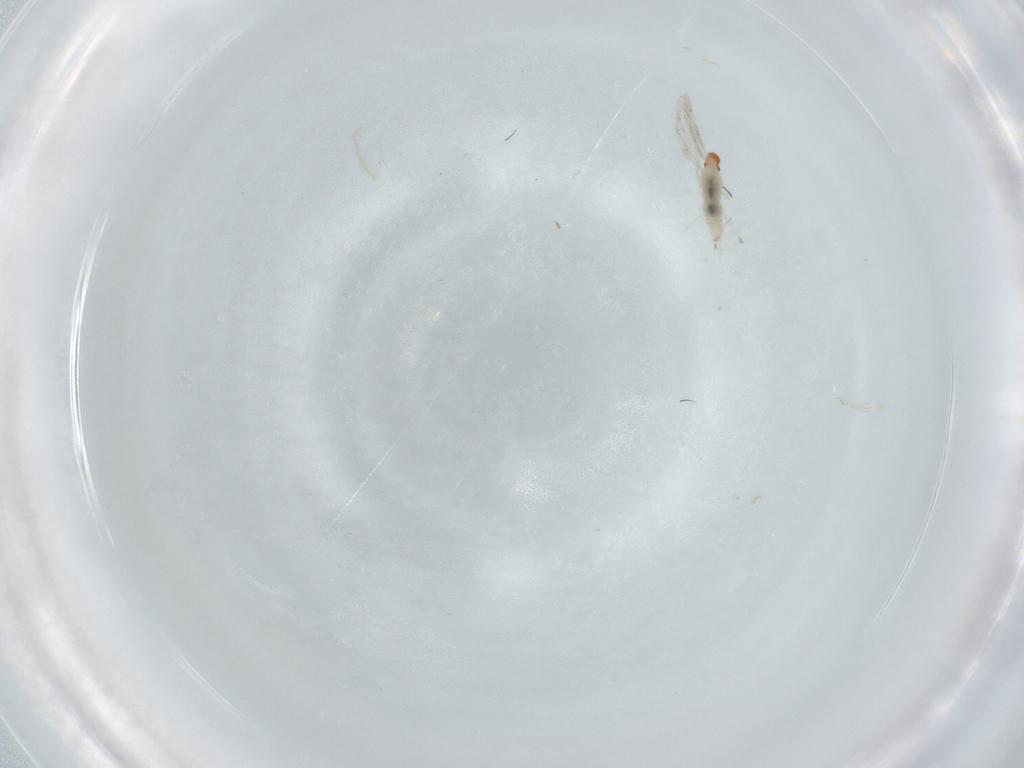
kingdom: Animalia
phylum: Arthropoda
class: Insecta
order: Diptera
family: Cecidomyiidae
